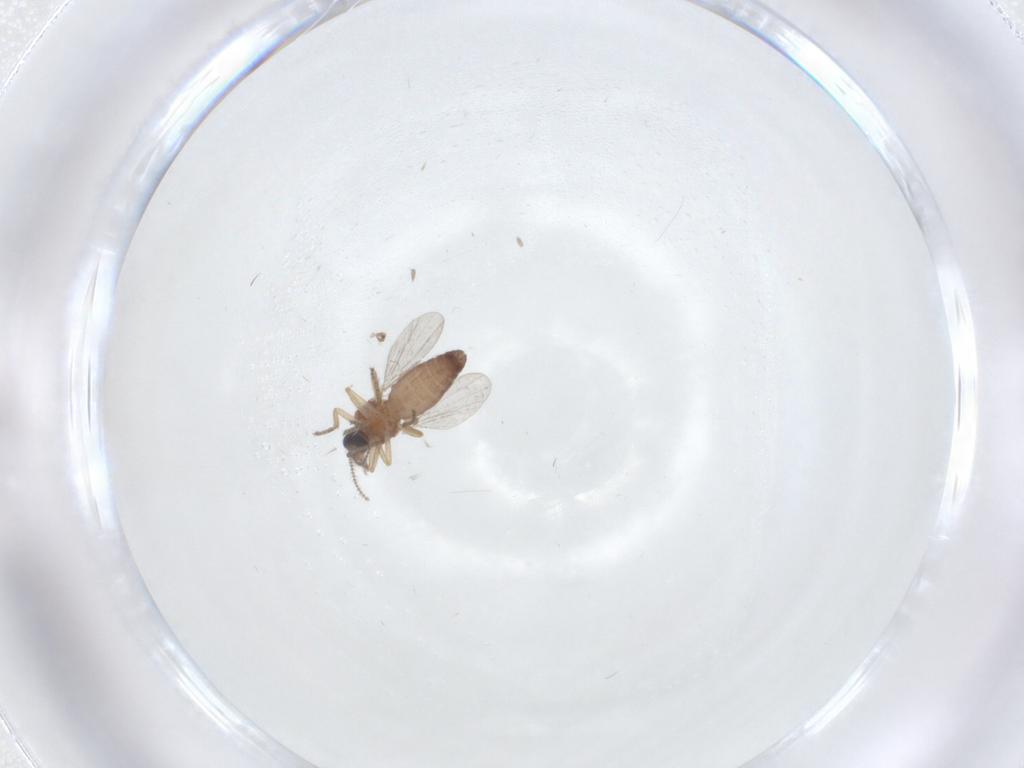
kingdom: Animalia
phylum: Arthropoda
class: Insecta
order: Diptera
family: Ceratopogonidae
